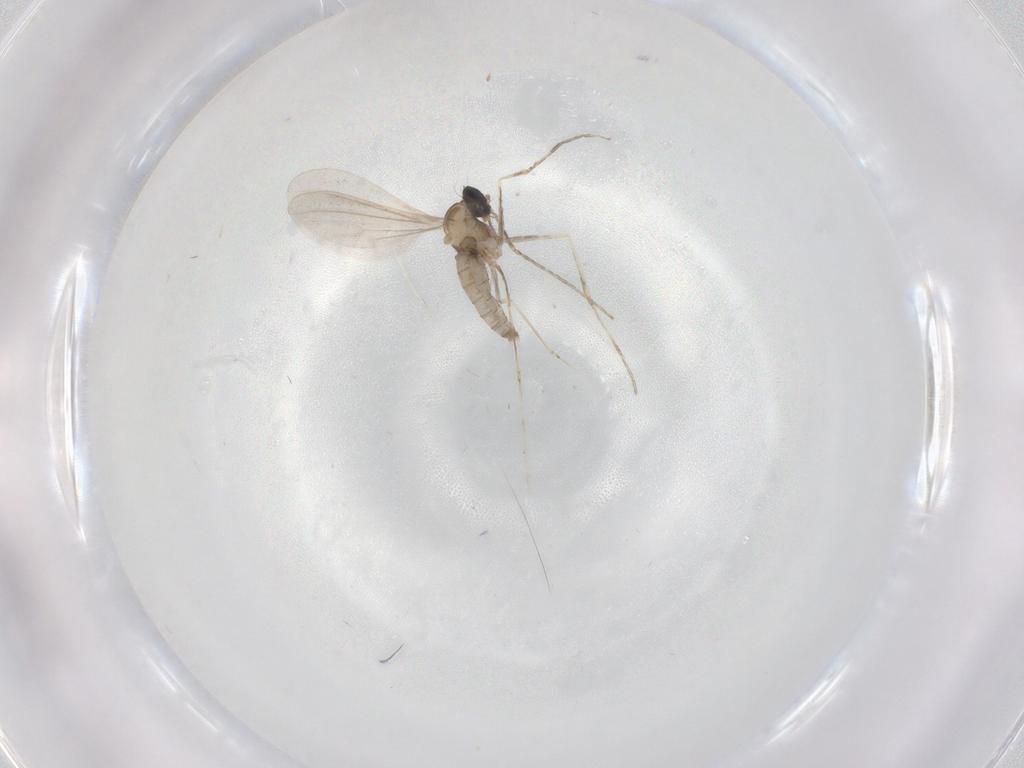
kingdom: Animalia
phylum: Arthropoda
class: Insecta
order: Diptera
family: Cecidomyiidae
